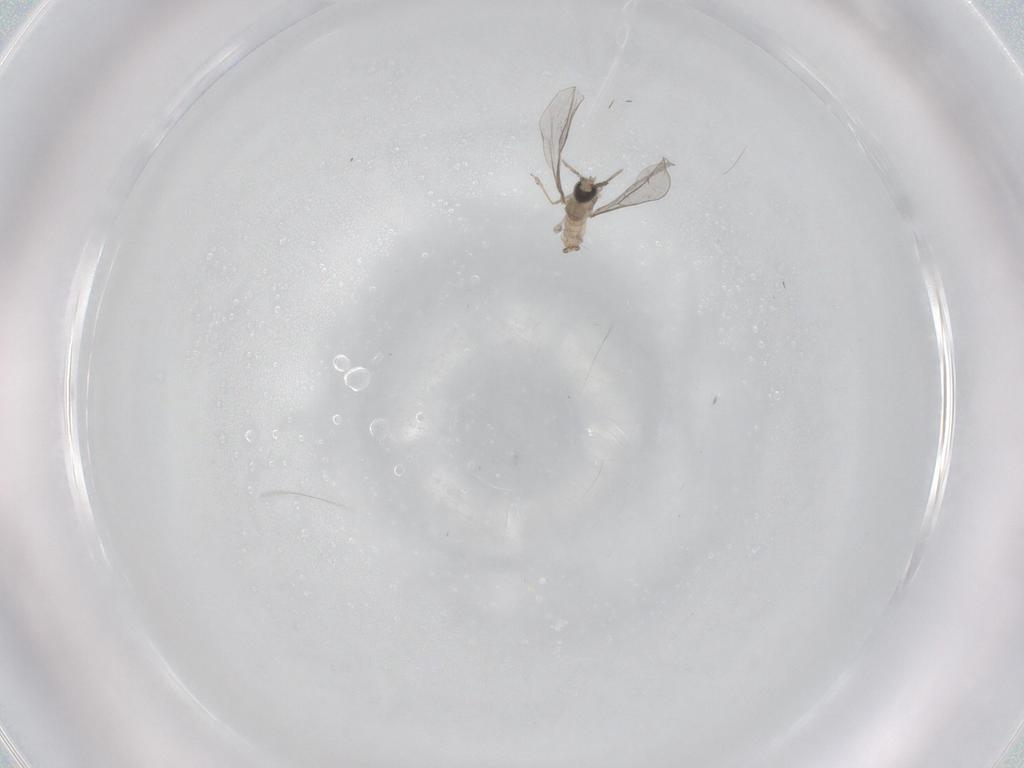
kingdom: Animalia
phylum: Arthropoda
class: Insecta
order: Diptera
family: Cecidomyiidae
